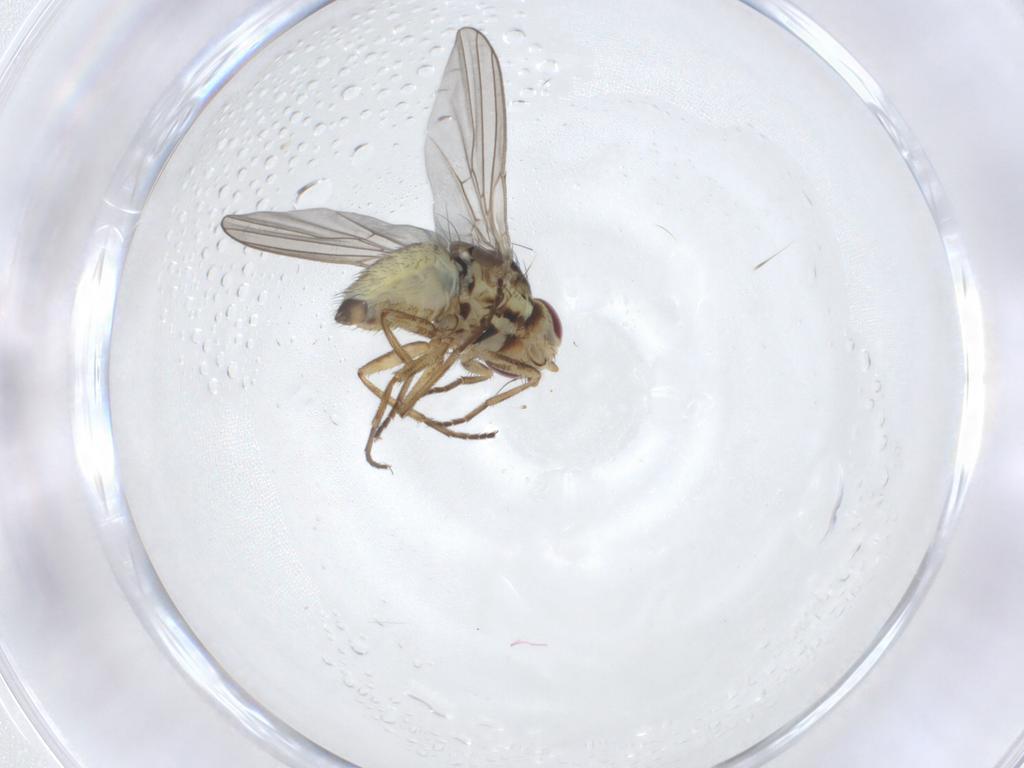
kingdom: Animalia
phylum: Arthropoda
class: Insecta
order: Diptera
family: Agromyzidae
